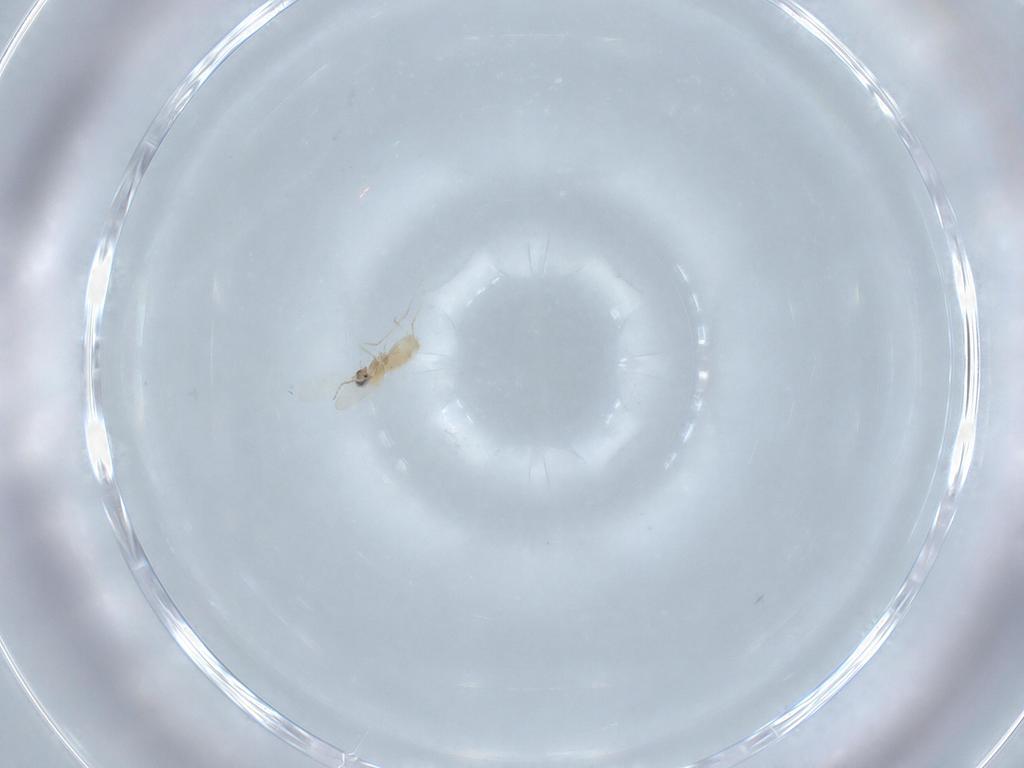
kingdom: Animalia
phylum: Arthropoda
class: Insecta
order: Diptera
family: Cecidomyiidae
